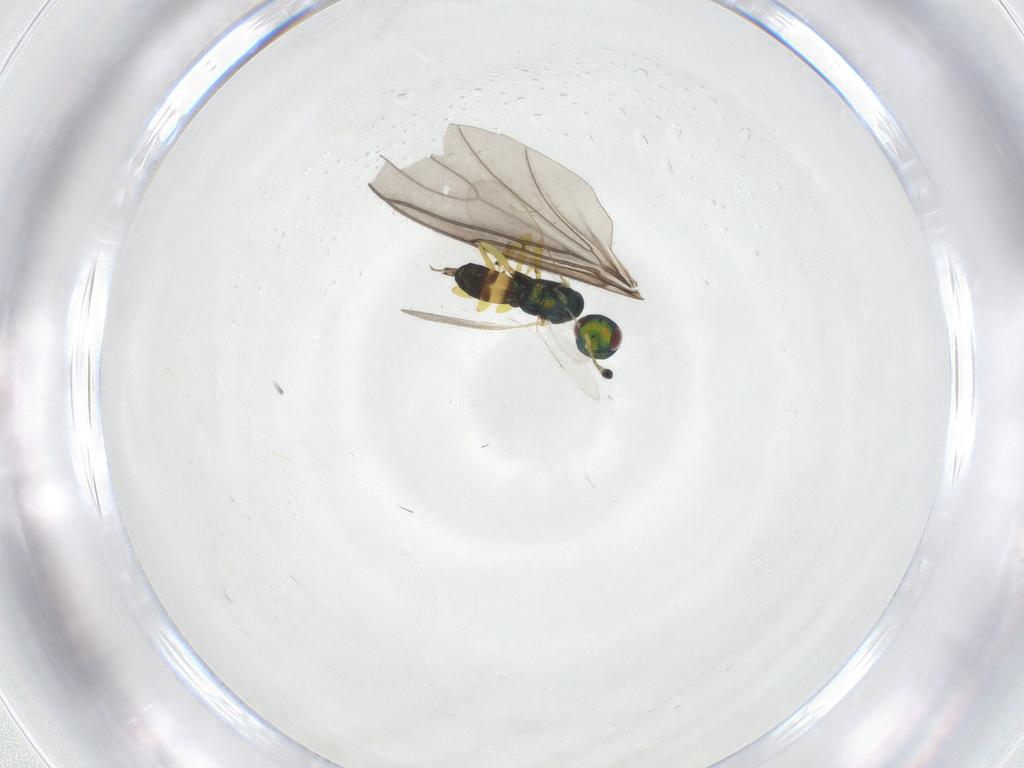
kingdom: Animalia
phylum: Arthropoda
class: Insecta
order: Hymenoptera
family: Pteromalidae
